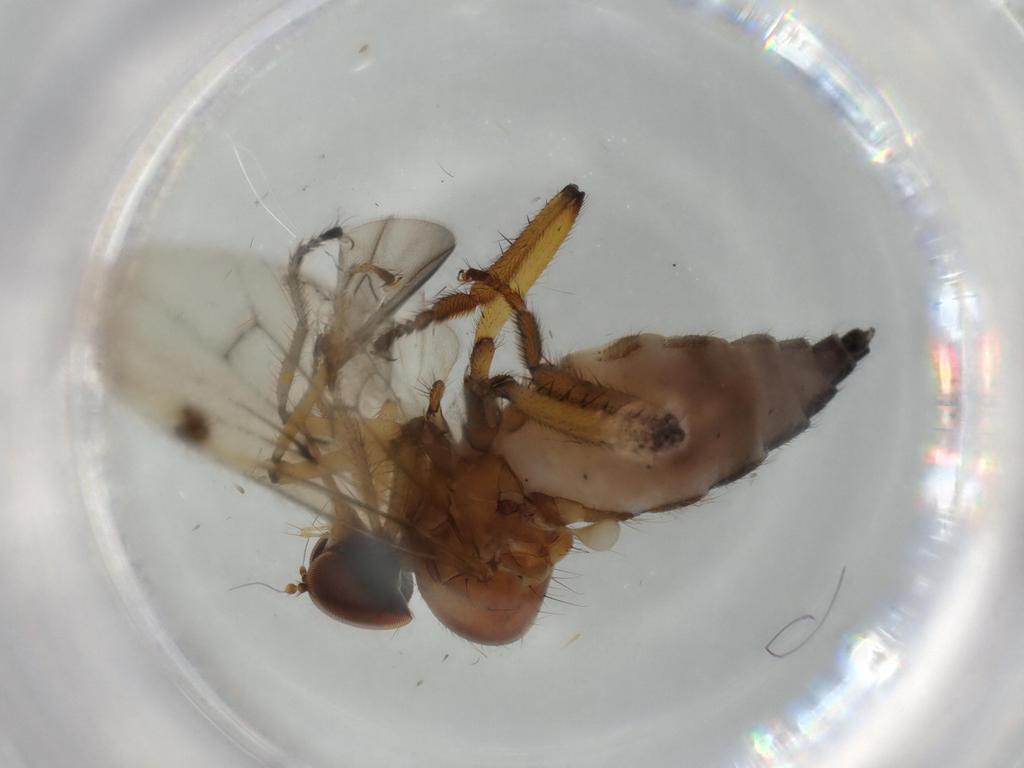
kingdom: Animalia
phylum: Arthropoda
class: Insecta
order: Diptera
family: Hybotidae
